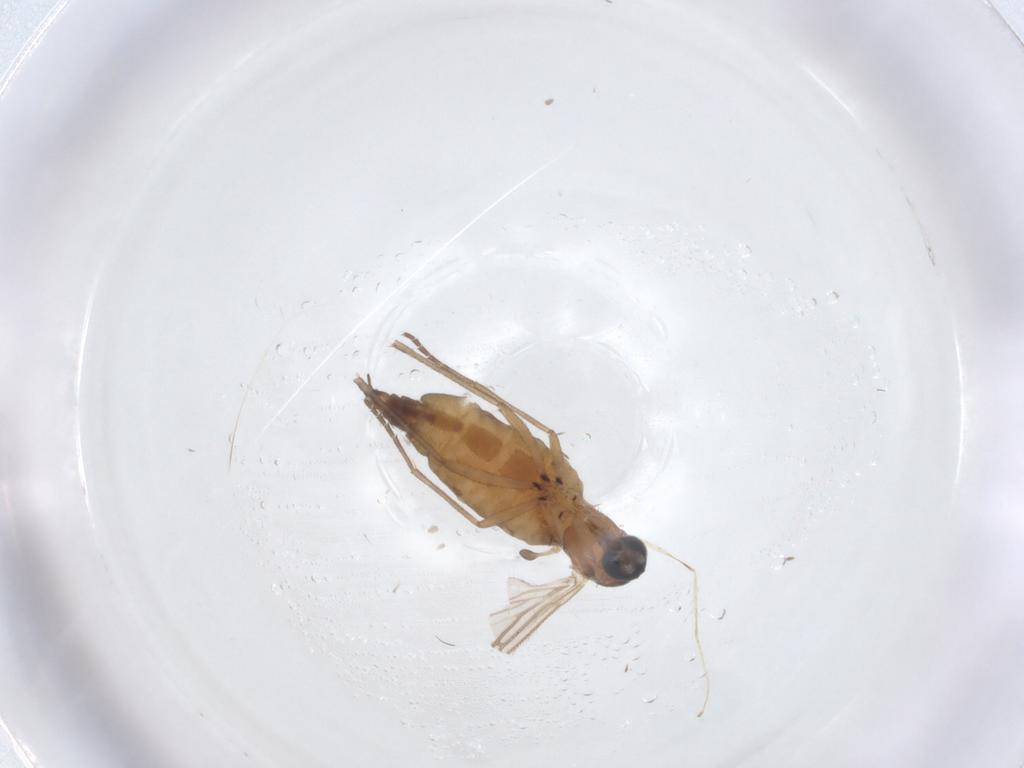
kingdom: Animalia
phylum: Arthropoda
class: Insecta
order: Diptera
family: Sciaridae
